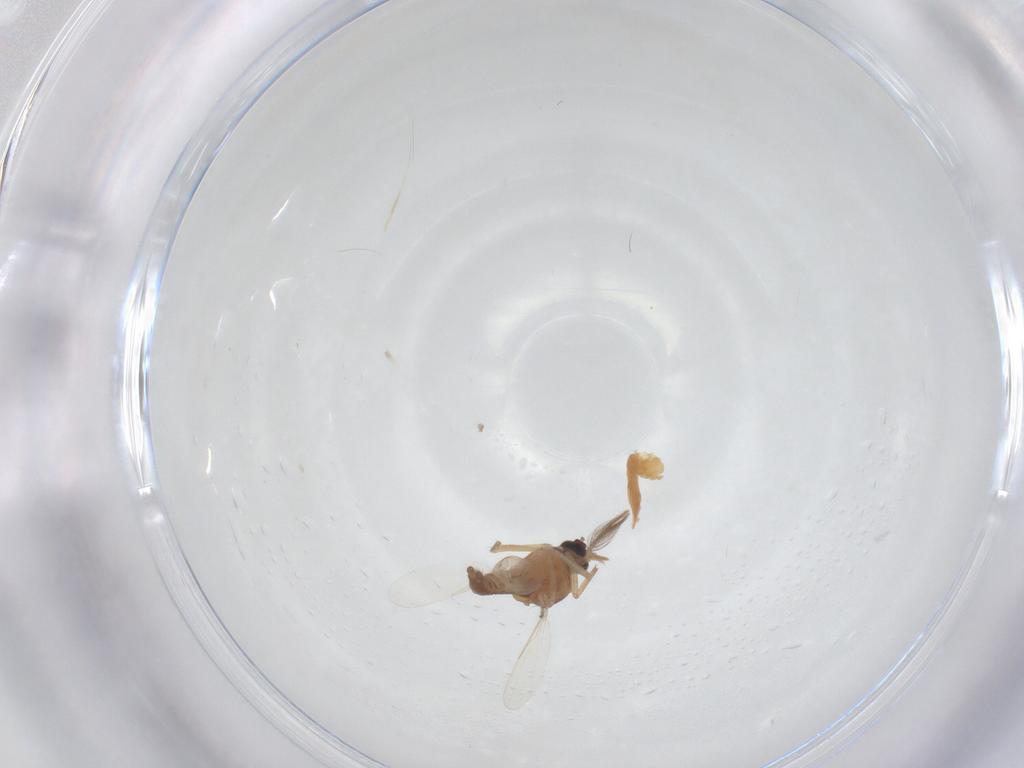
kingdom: Animalia
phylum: Arthropoda
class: Insecta
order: Diptera
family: Ceratopogonidae
